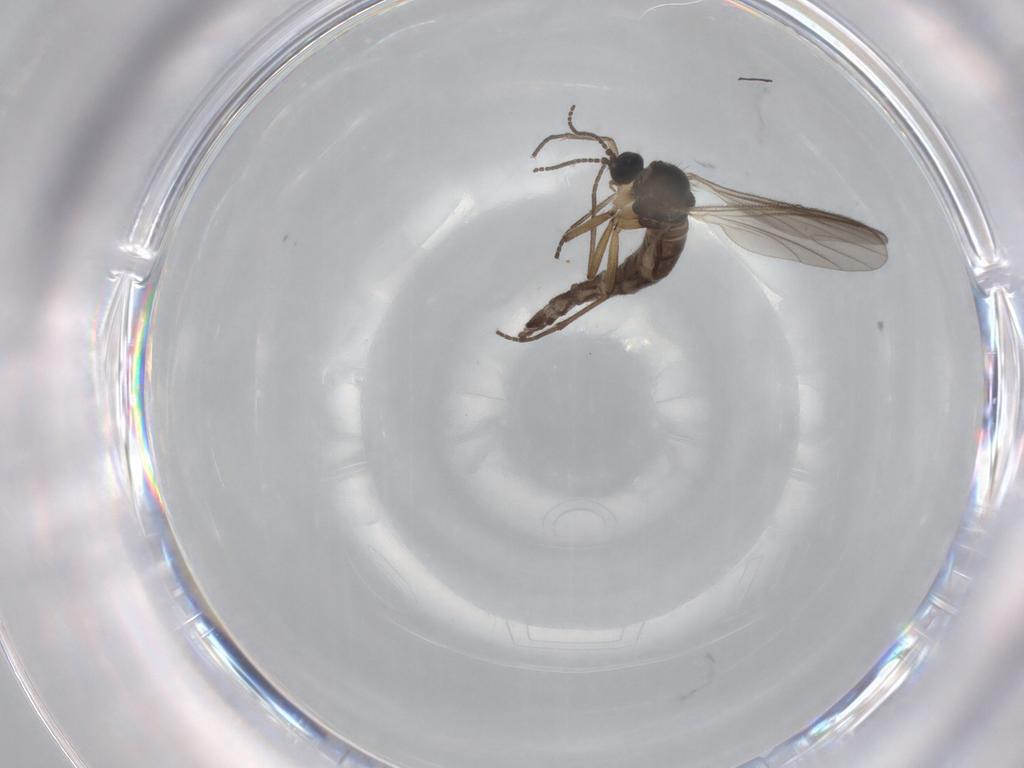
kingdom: Animalia
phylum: Arthropoda
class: Insecta
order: Diptera
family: Sciaridae
